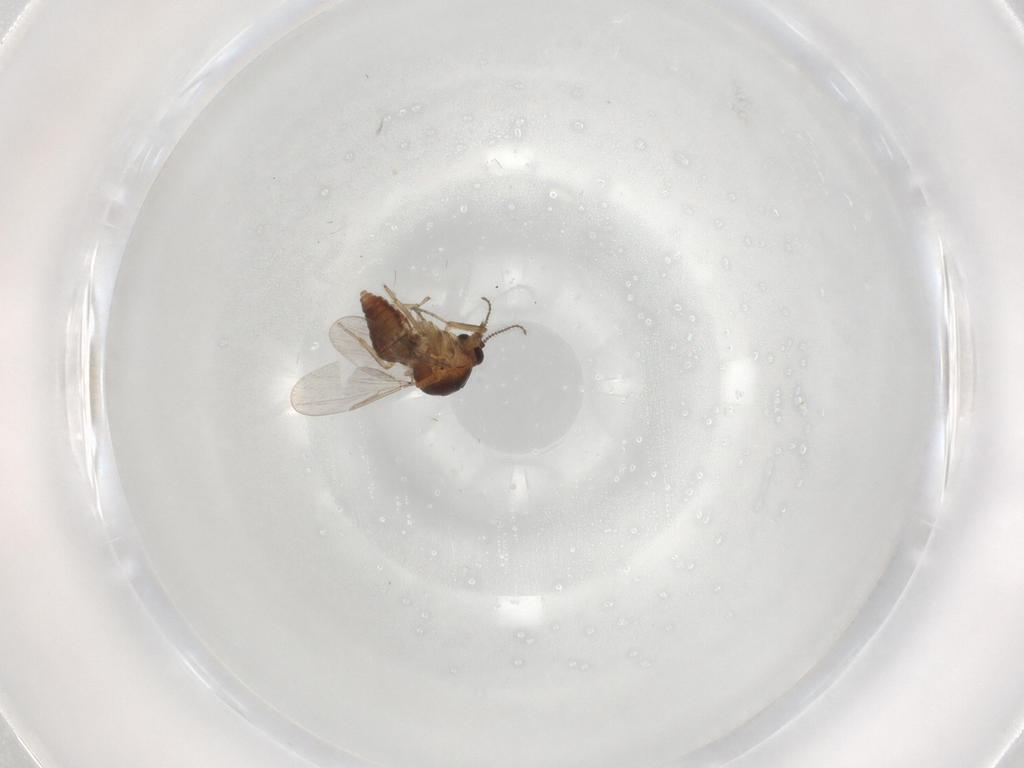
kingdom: Animalia
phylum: Arthropoda
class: Insecta
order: Diptera
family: Ceratopogonidae
